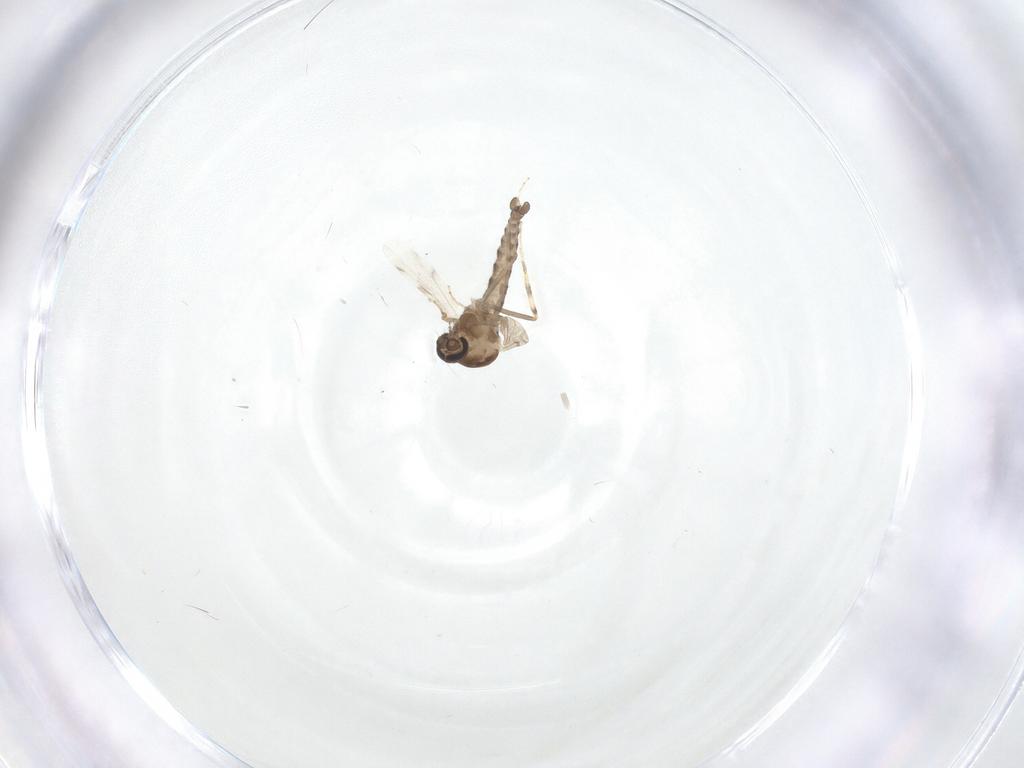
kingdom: Animalia
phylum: Arthropoda
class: Insecta
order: Diptera
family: Ceratopogonidae
